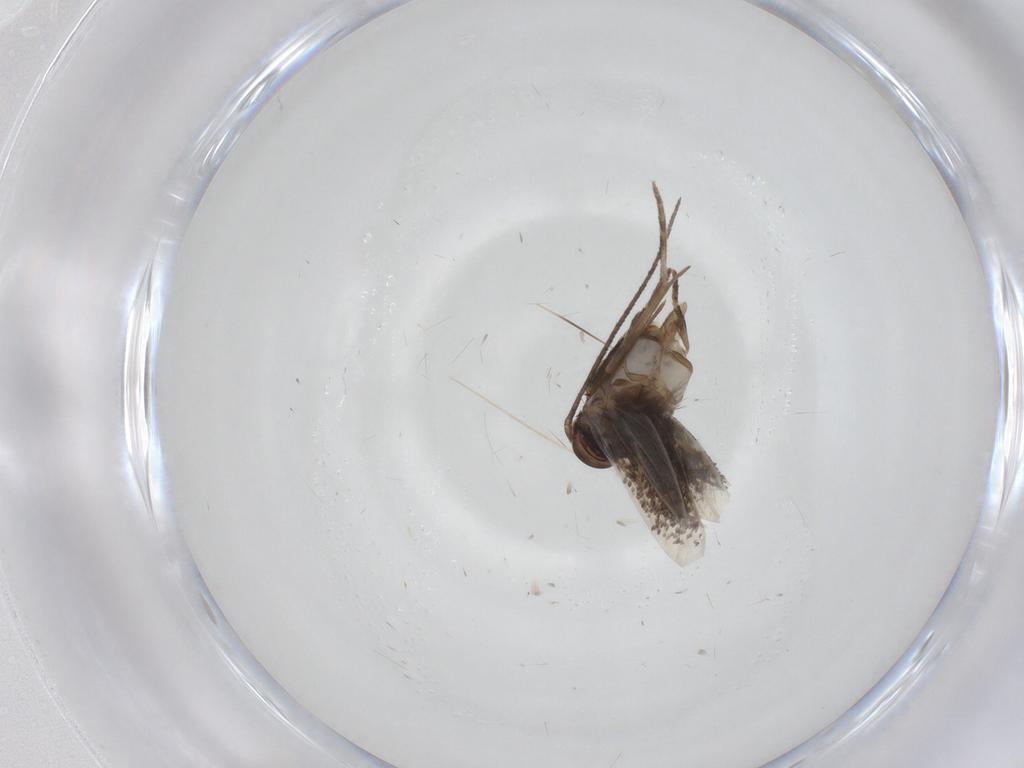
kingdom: Animalia
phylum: Arthropoda
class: Insecta
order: Lepidoptera
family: Elachistidae
